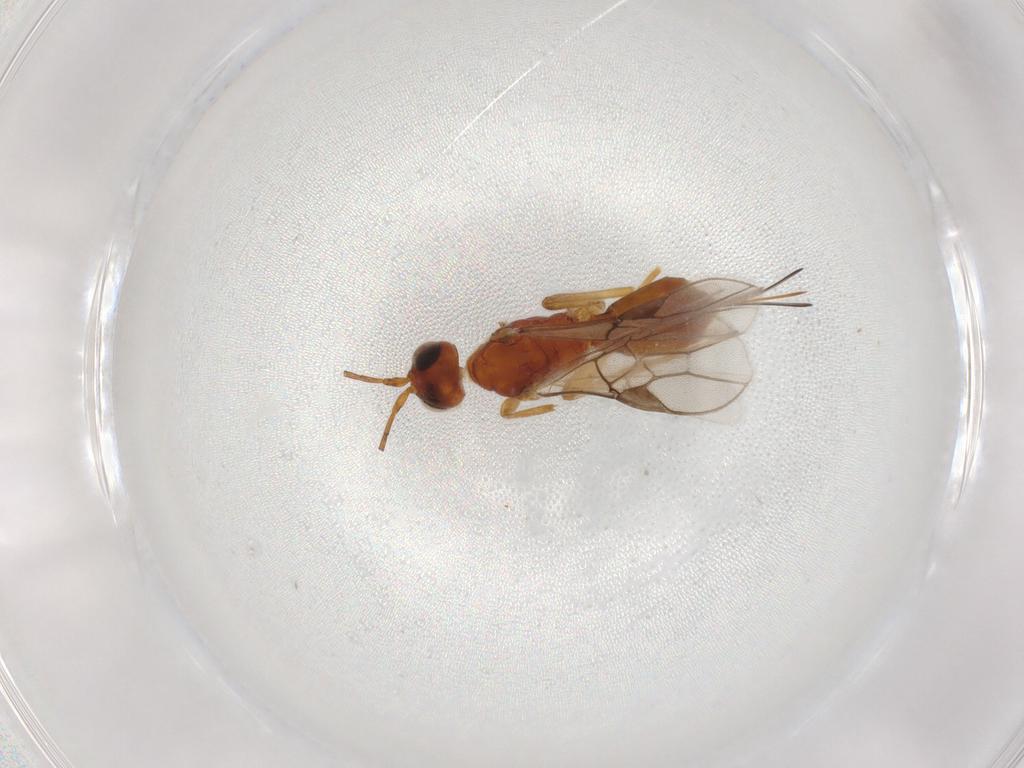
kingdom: Animalia
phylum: Arthropoda
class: Insecta
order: Hymenoptera
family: Braconidae
